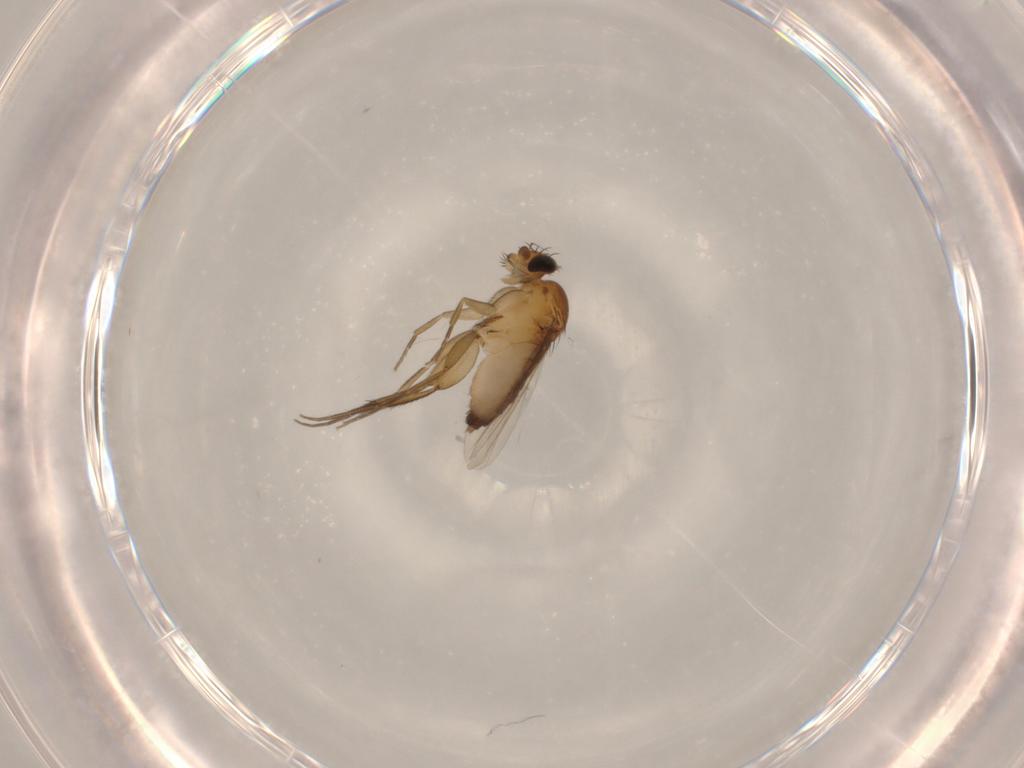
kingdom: Animalia
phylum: Arthropoda
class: Insecta
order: Diptera
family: Phoridae
